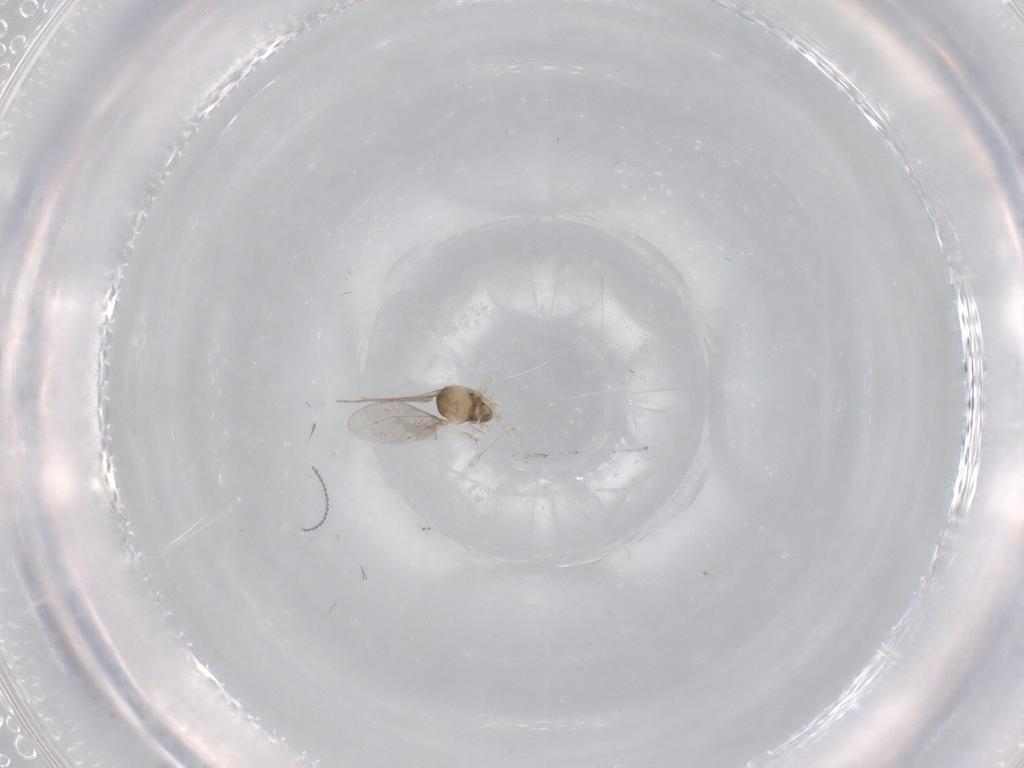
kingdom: Animalia
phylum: Arthropoda
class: Insecta
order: Diptera
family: Cecidomyiidae
